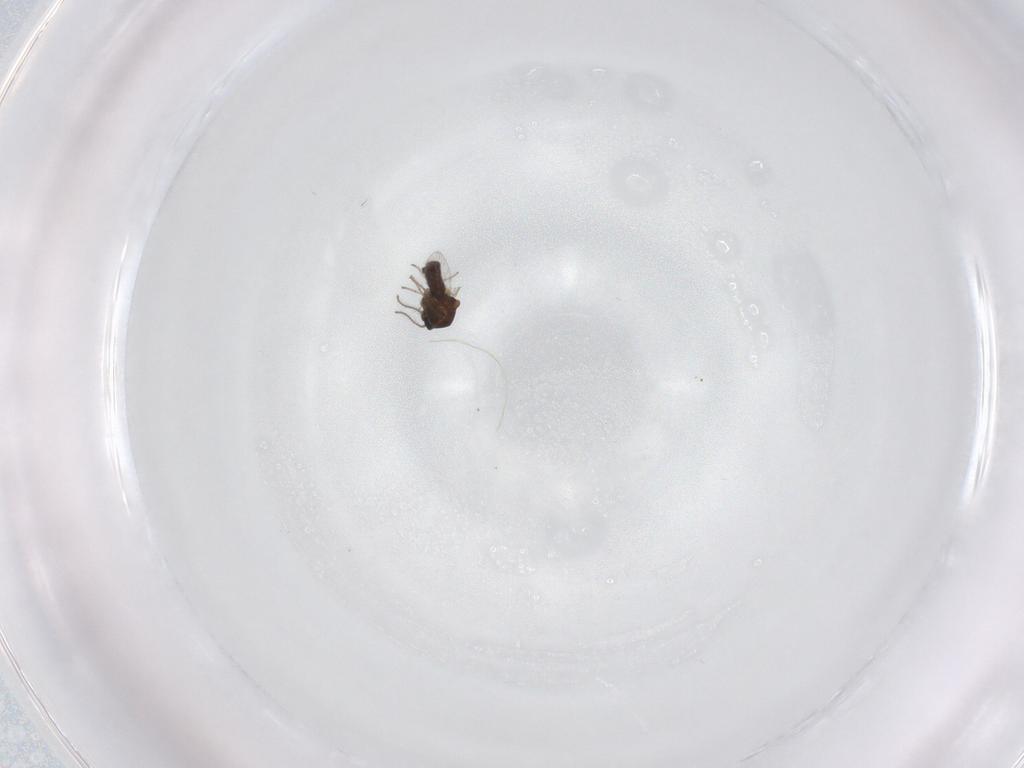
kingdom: Animalia
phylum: Arthropoda
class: Insecta
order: Diptera
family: Ceratopogonidae
